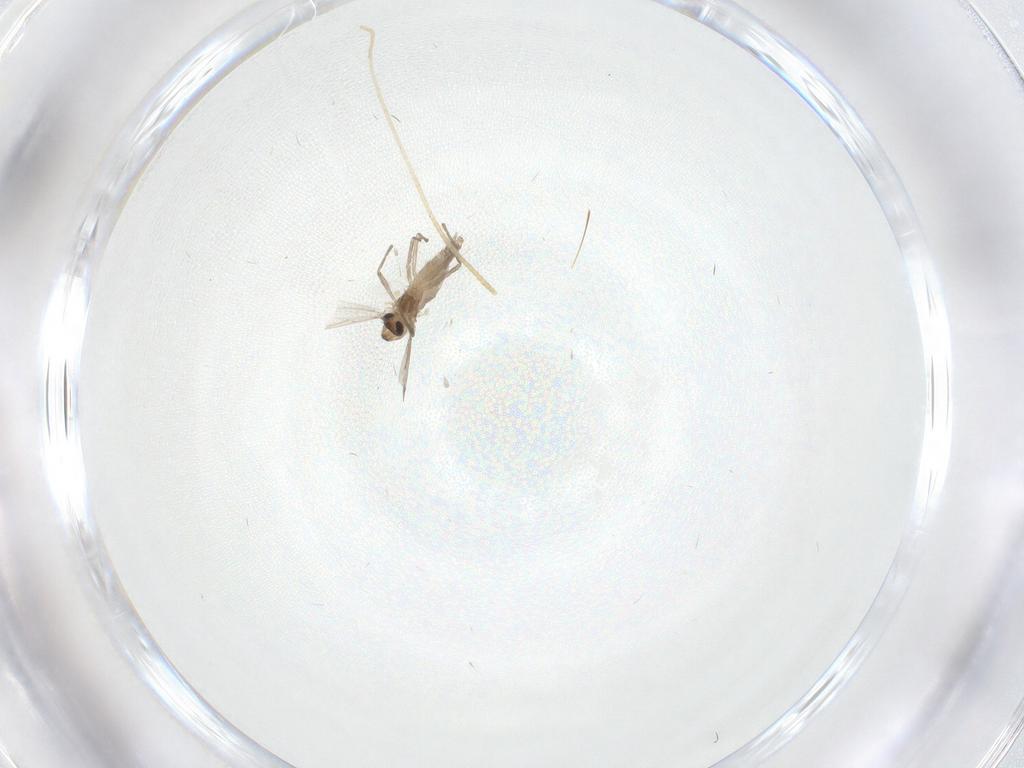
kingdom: Animalia
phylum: Arthropoda
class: Insecta
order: Diptera
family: Chironomidae
